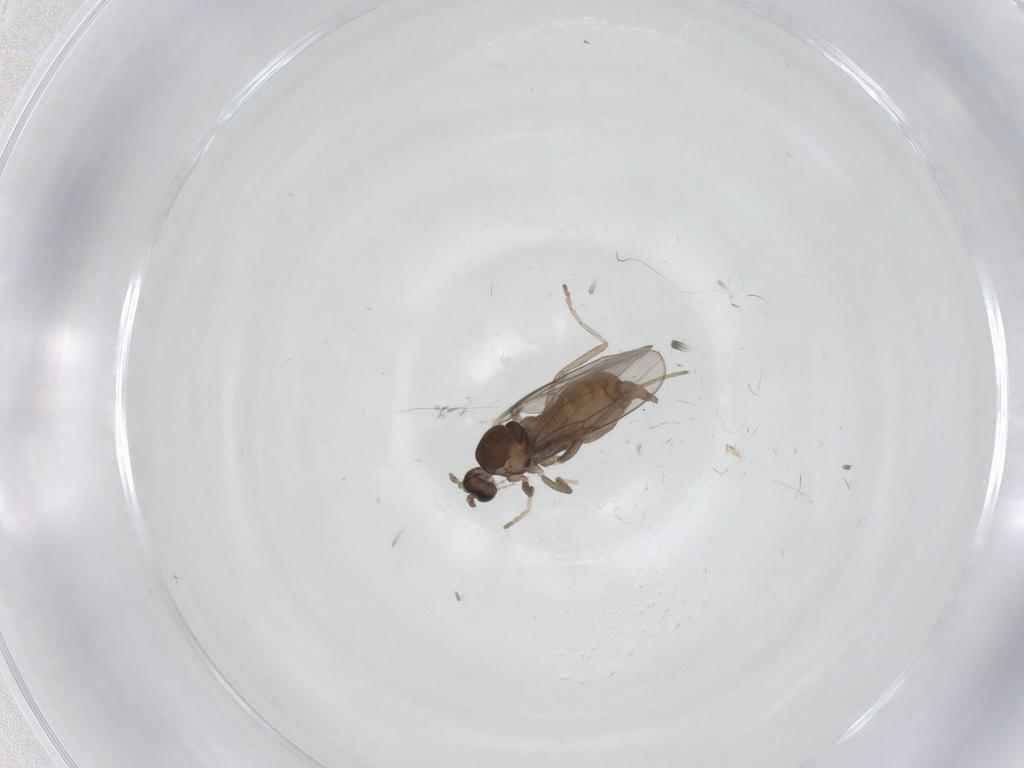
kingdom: Animalia
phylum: Arthropoda
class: Insecta
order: Diptera
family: Cecidomyiidae
